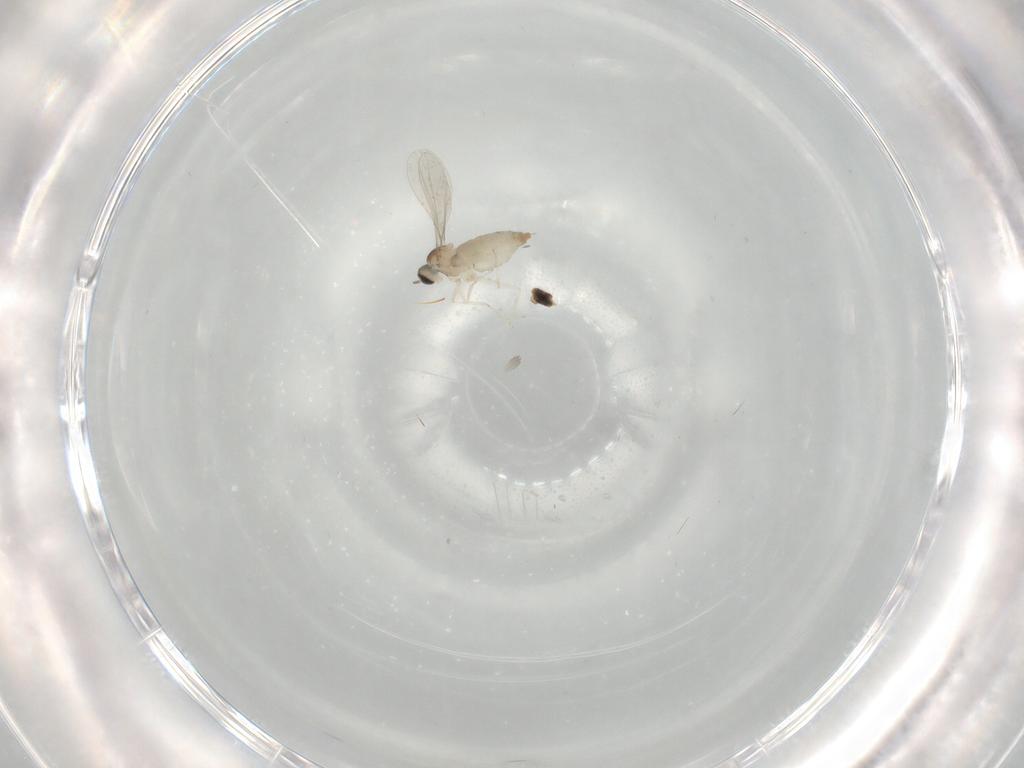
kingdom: Animalia
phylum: Arthropoda
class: Insecta
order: Diptera
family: Cecidomyiidae
